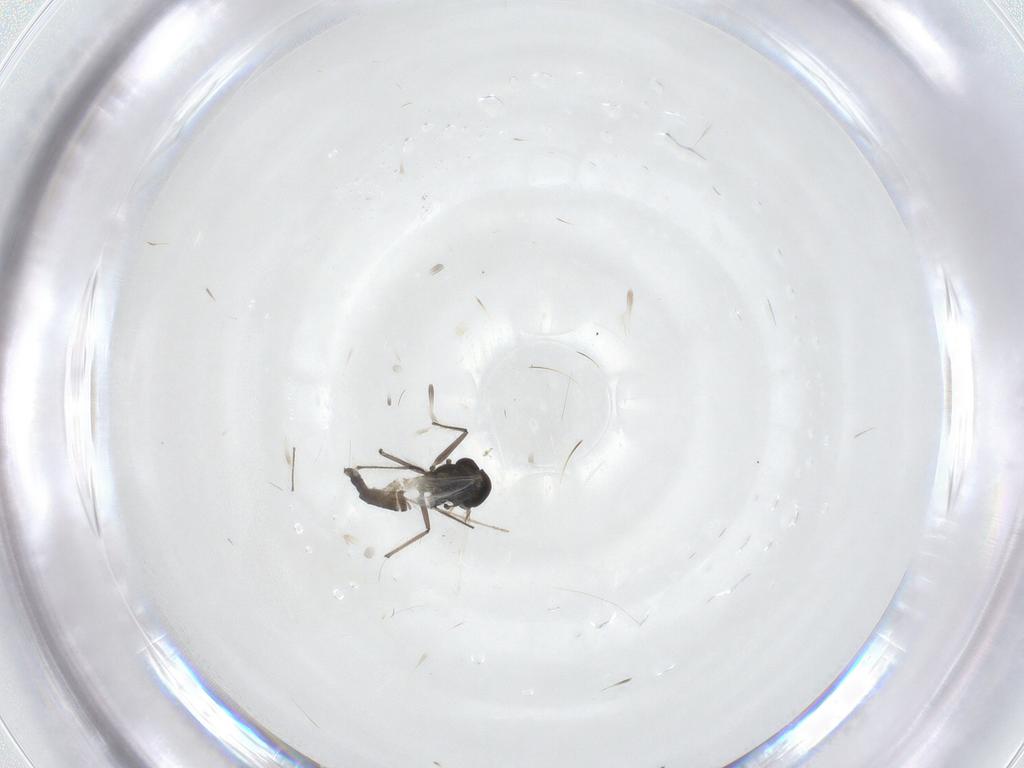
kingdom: Animalia
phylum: Arthropoda
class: Insecta
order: Diptera
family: Chironomidae
